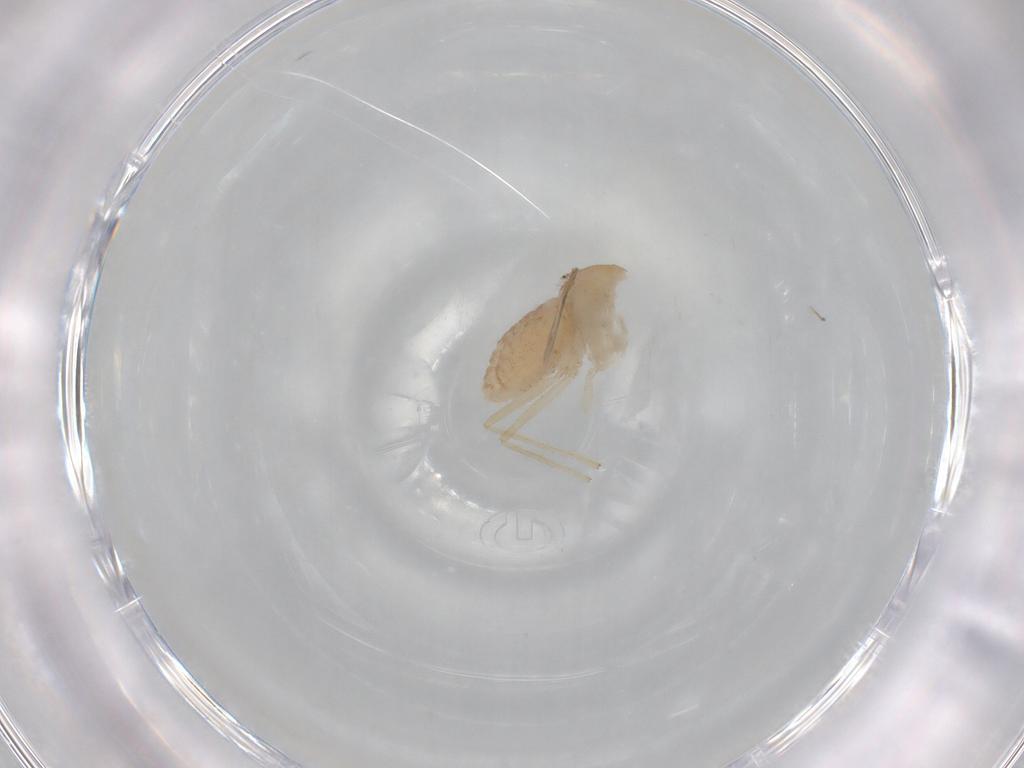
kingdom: Animalia
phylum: Arthropoda
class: Insecta
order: Diptera
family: Chironomidae
